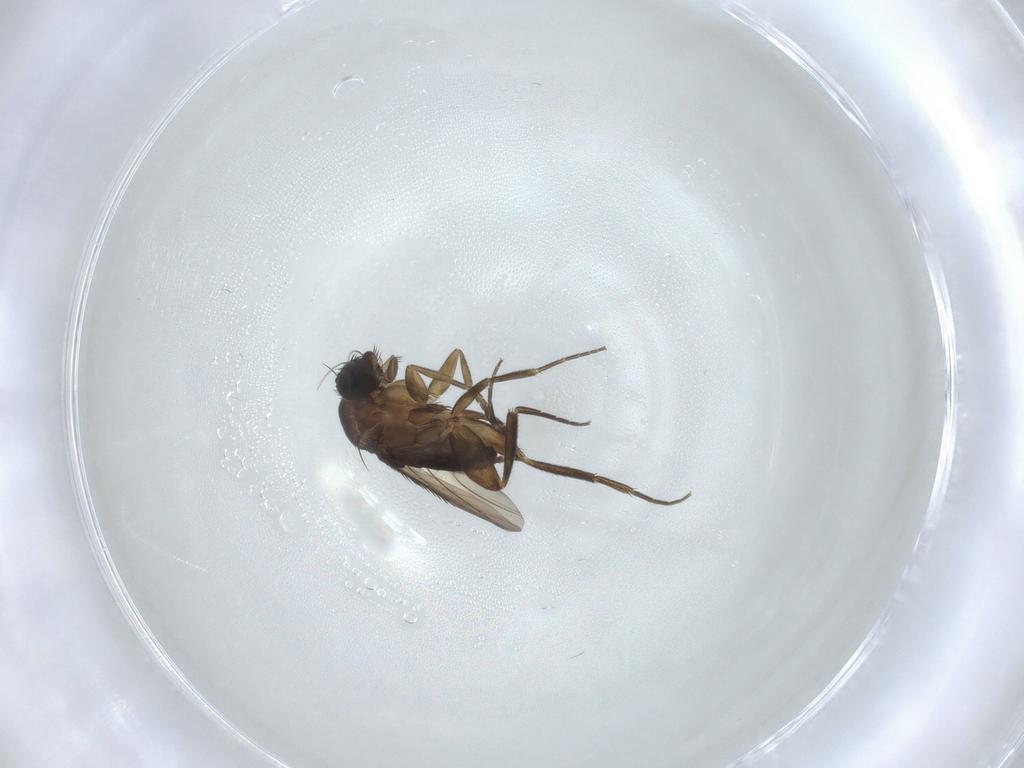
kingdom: Animalia
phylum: Arthropoda
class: Insecta
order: Diptera
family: Phoridae
